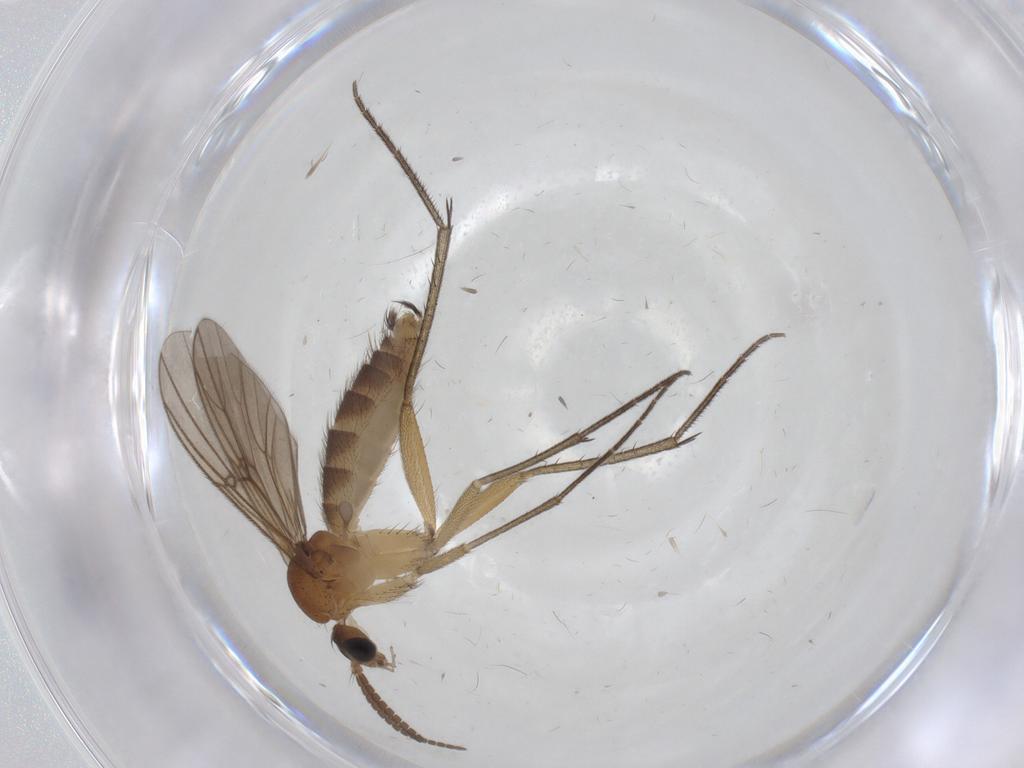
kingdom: Animalia
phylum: Arthropoda
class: Insecta
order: Diptera
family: Mycetophilidae
